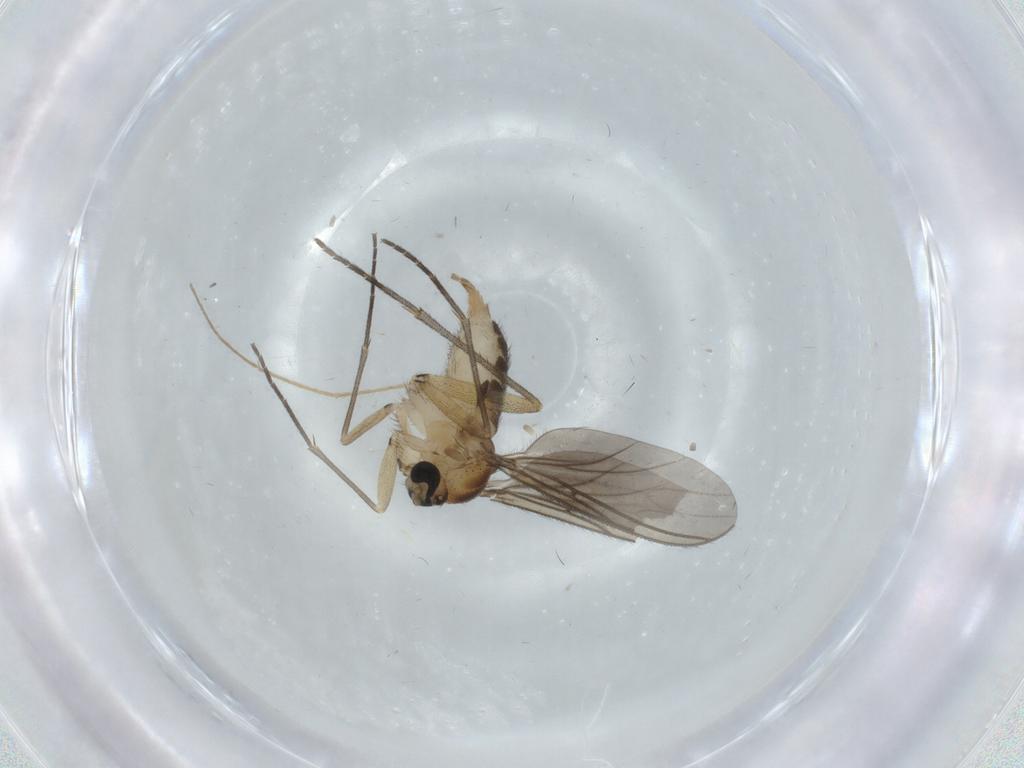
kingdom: Animalia
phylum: Arthropoda
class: Insecta
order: Diptera
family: Sciaridae
